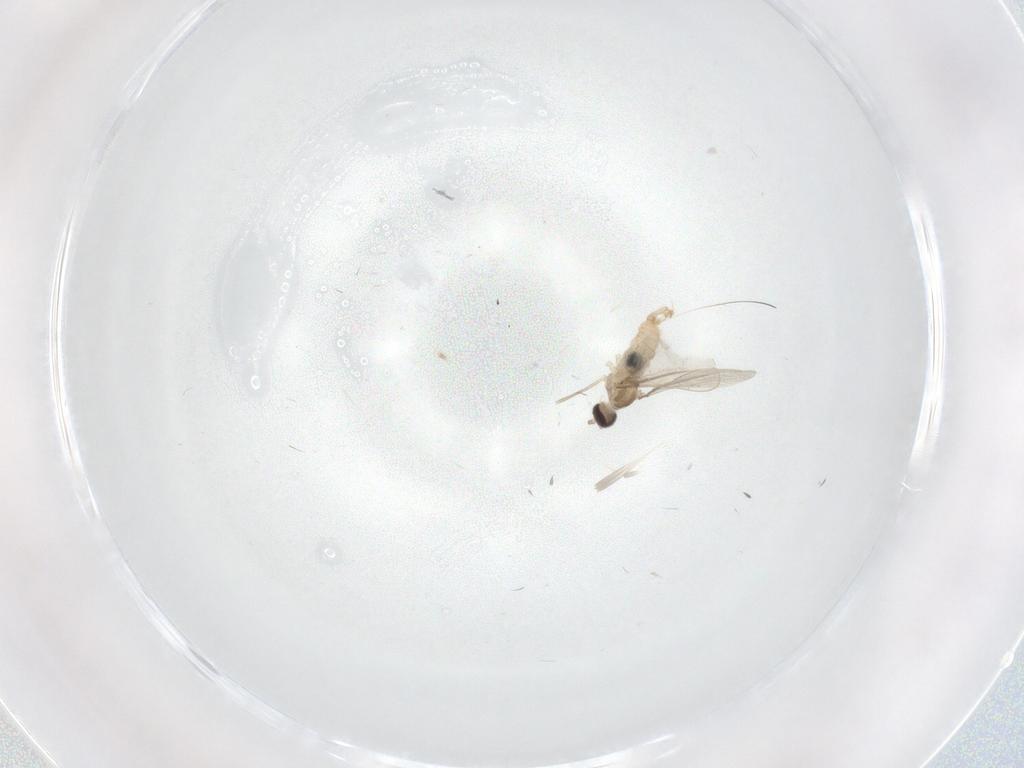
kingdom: Animalia
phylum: Arthropoda
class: Insecta
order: Diptera
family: Cecidomyiidae
